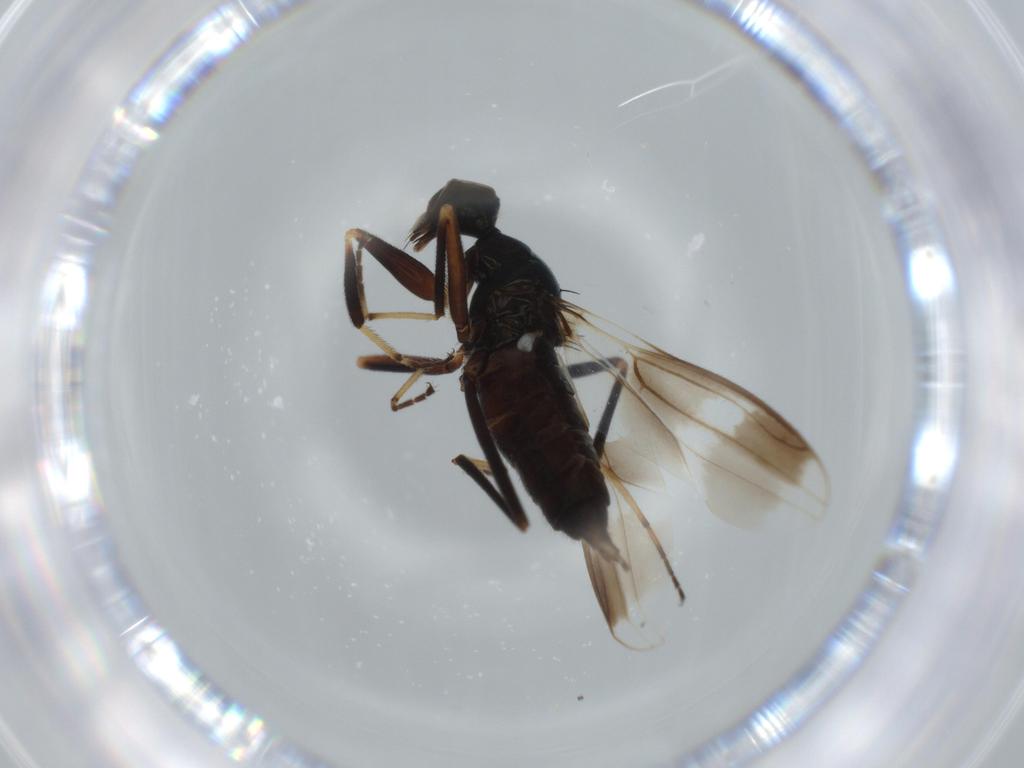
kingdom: Animalia
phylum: Arthropoda
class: Insecta
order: Diptera
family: Hybotidae
